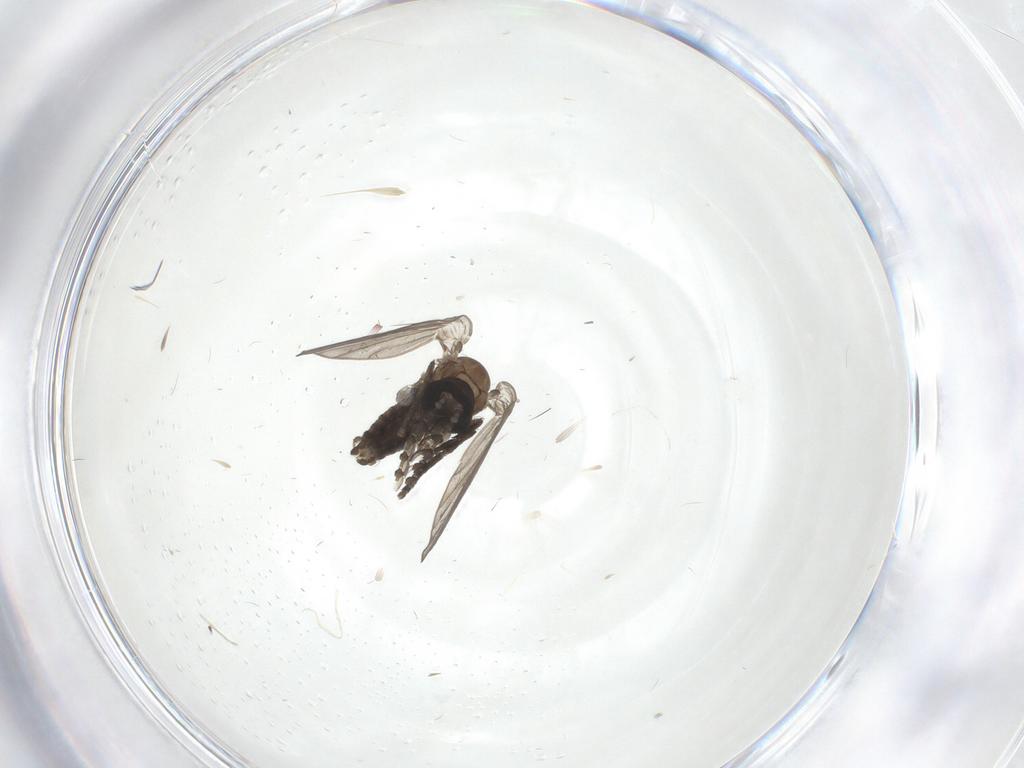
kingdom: Animalia
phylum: Arthropoda
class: Insecta
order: Diptera
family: Psychodidae
